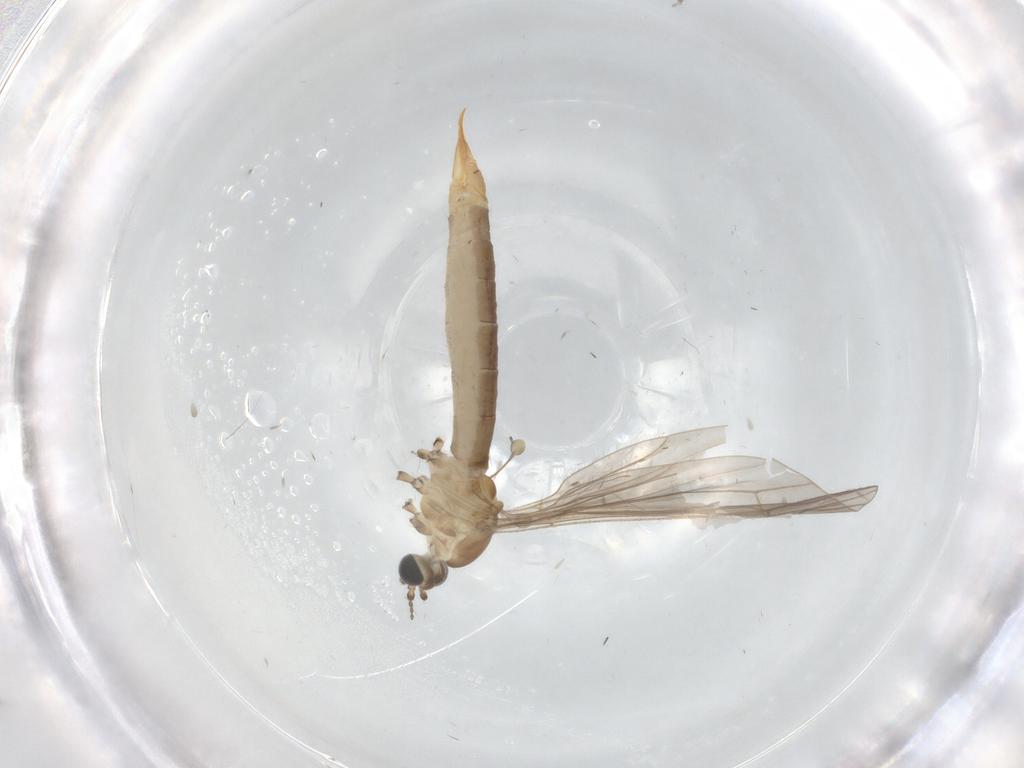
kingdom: Animalia
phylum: Arthropoda
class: Insecta
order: Diptera
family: Limoniidae
